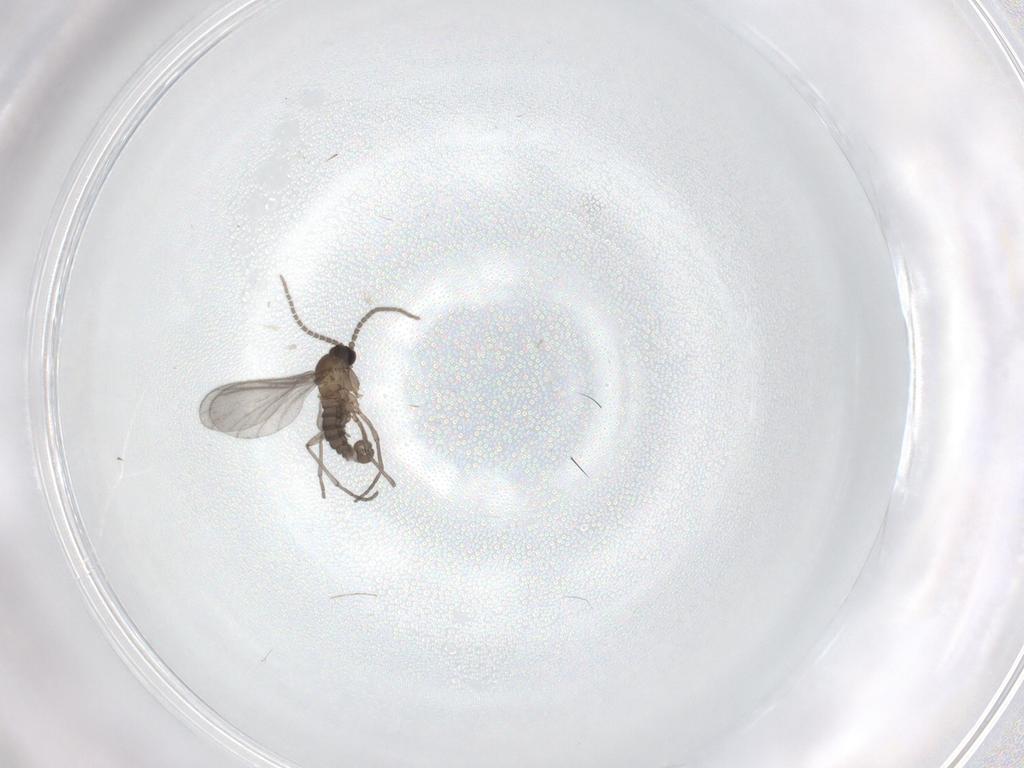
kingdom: Animalia
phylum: Arthropoda
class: Insecta
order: Diptera
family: Sciaridae
